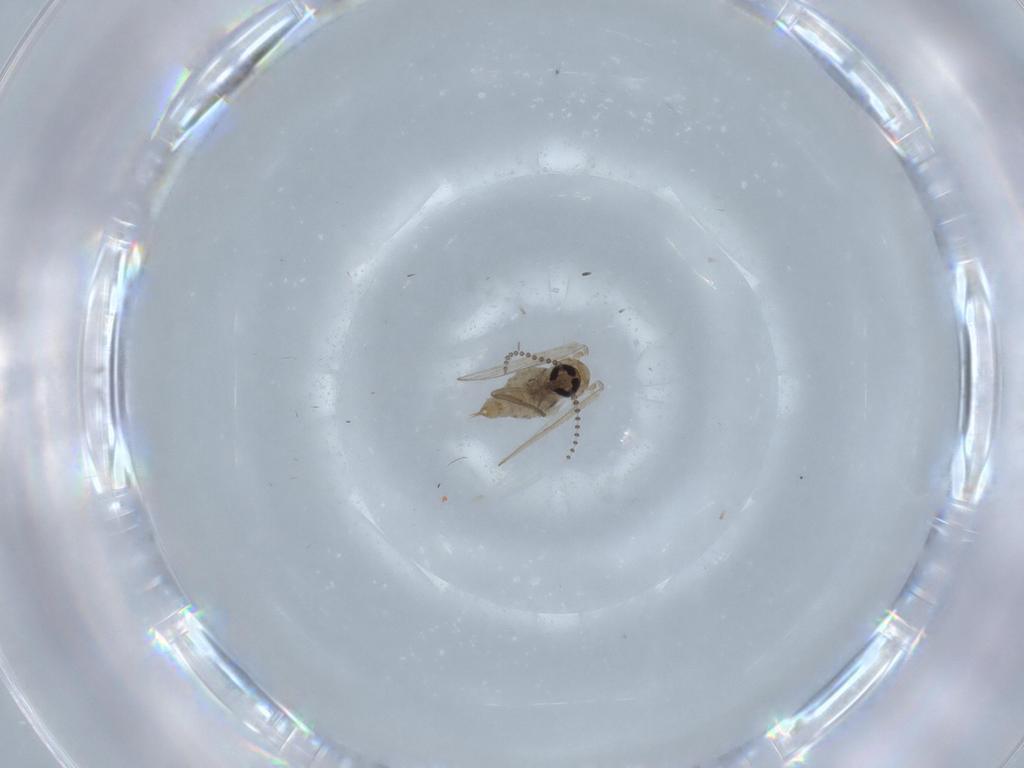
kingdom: Animalia
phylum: Arthropoda
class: Insecta
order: Diptera
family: Psychodidae
